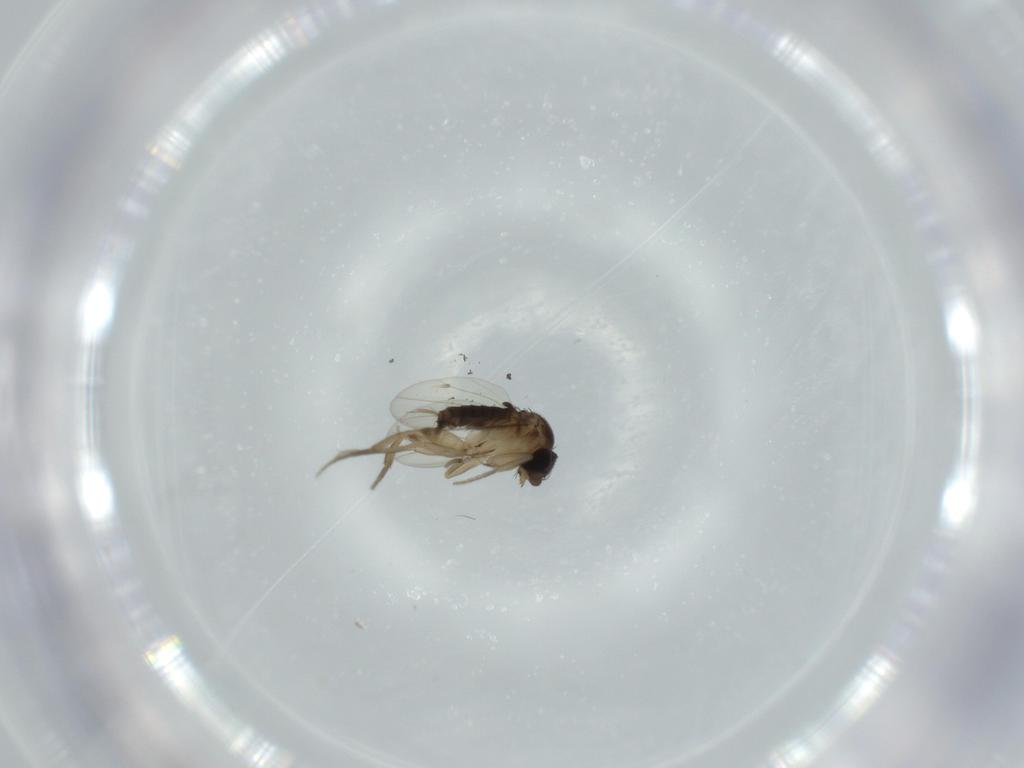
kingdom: Animalia
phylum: Arthropoda
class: Insecta
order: Diptera
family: Phoridae
